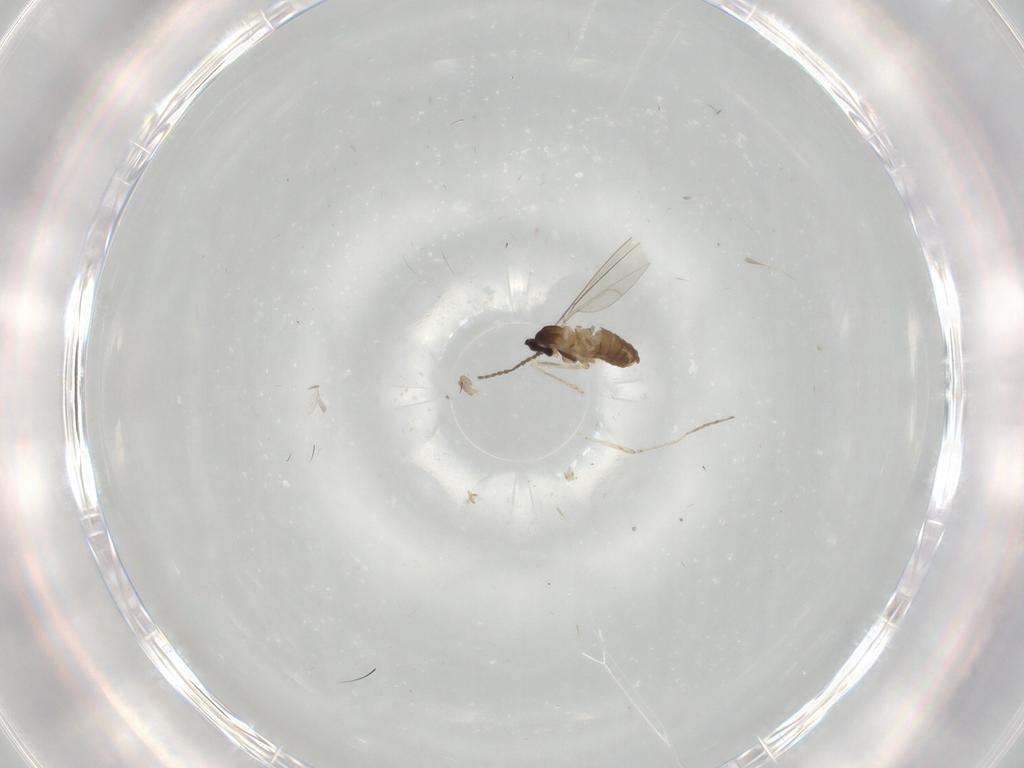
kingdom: Animalia
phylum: Arthropoda
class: Insecta
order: Diptera
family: Cecidomyiidae
